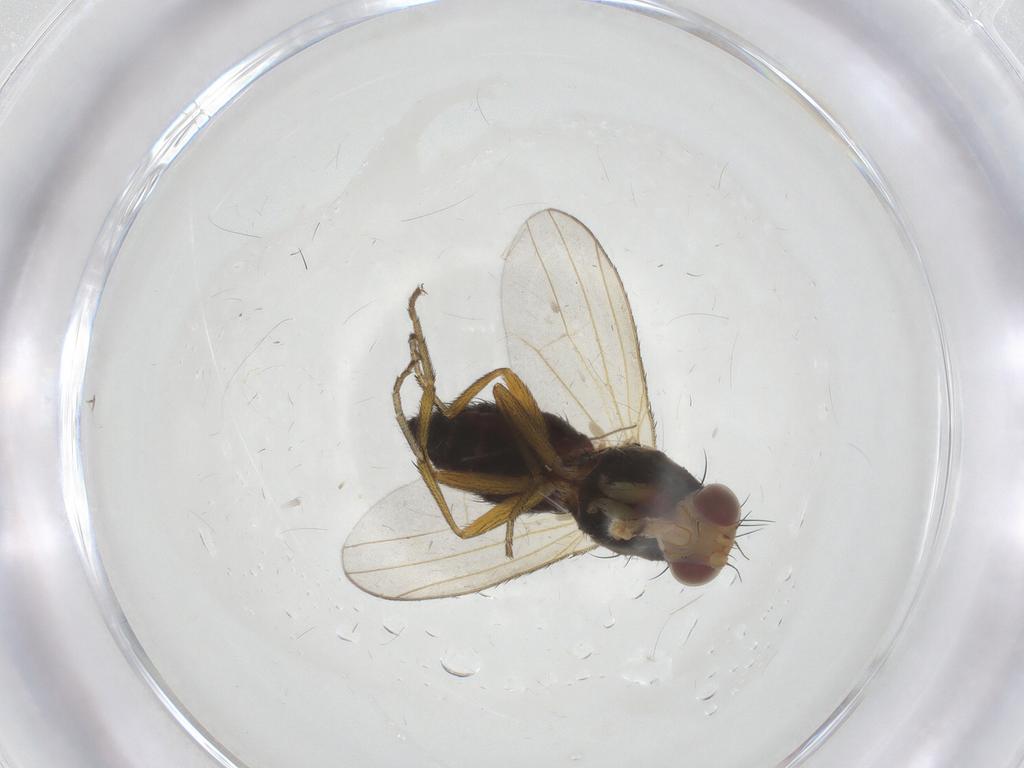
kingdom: Animalia
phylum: Arthropoda
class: Insecta
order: Diptera
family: Heleomyzidae
